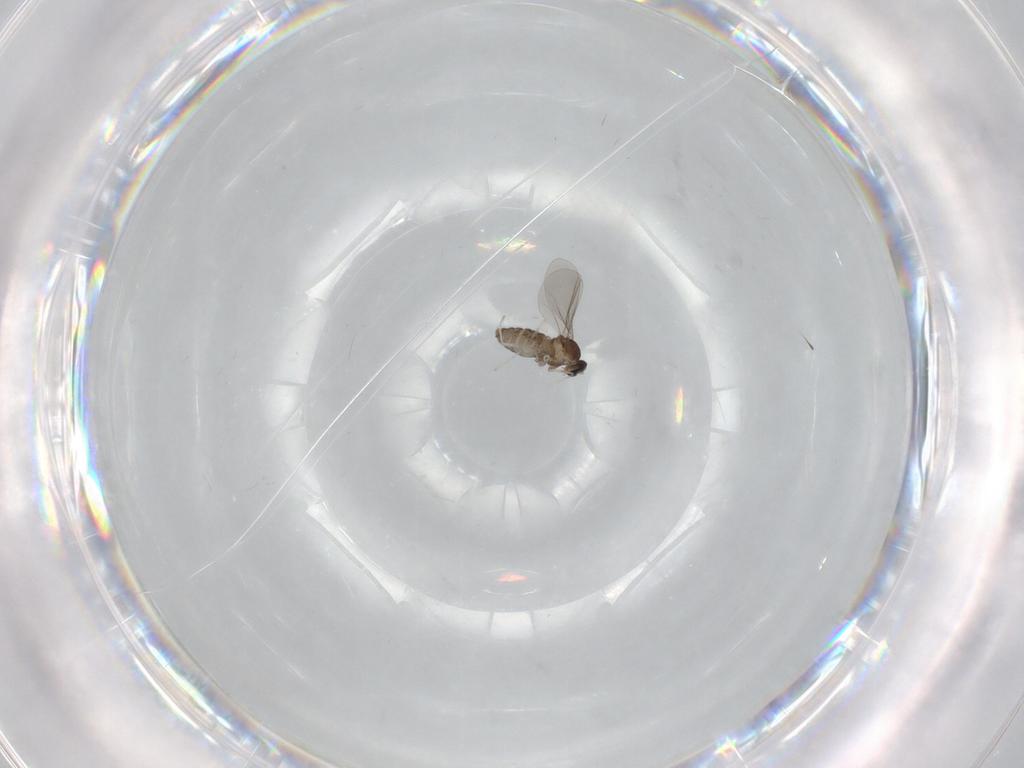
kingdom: Animalia
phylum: Arthropoda
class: Insecta
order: Diptera
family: Cecidomyiidae
